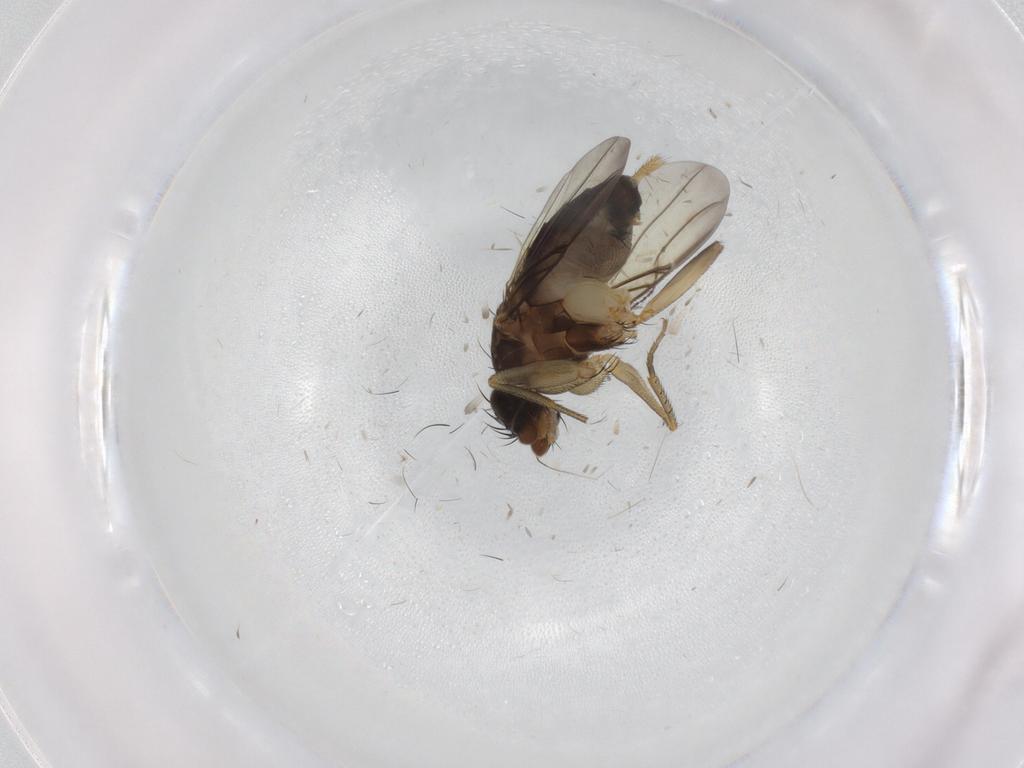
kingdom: Animalia
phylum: Arthropoda
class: Insecta
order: Diptera
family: Phoridae
